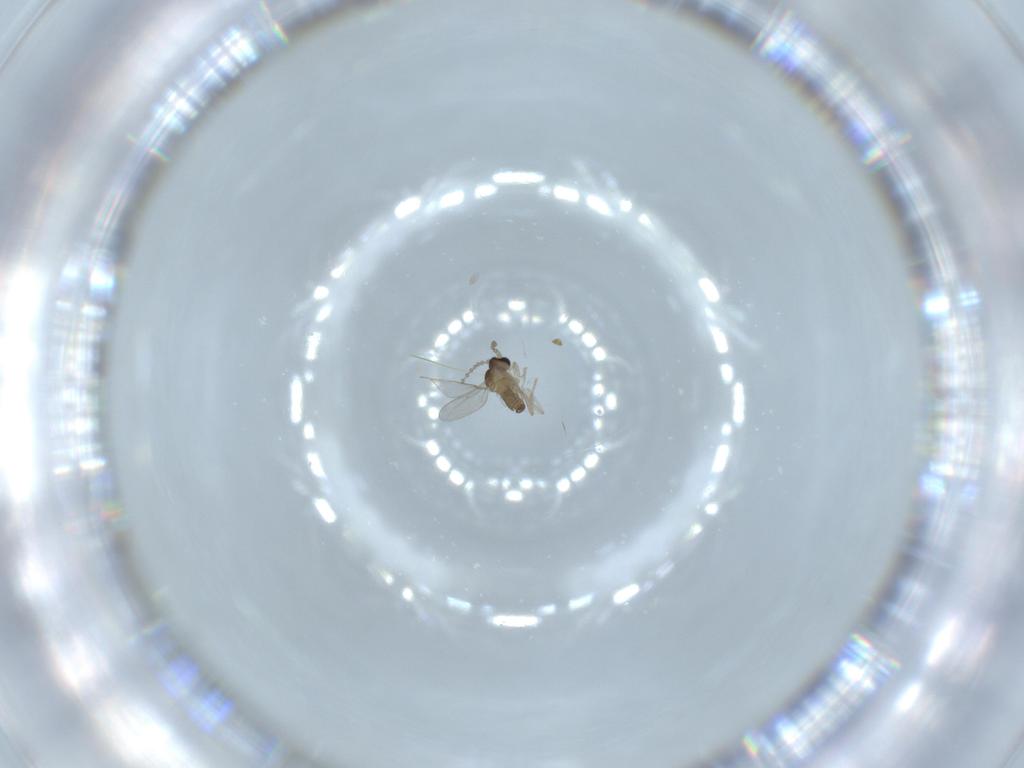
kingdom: Animalia
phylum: Arthropoda
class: Insecta
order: Diptera
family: Cecidomyiidae
